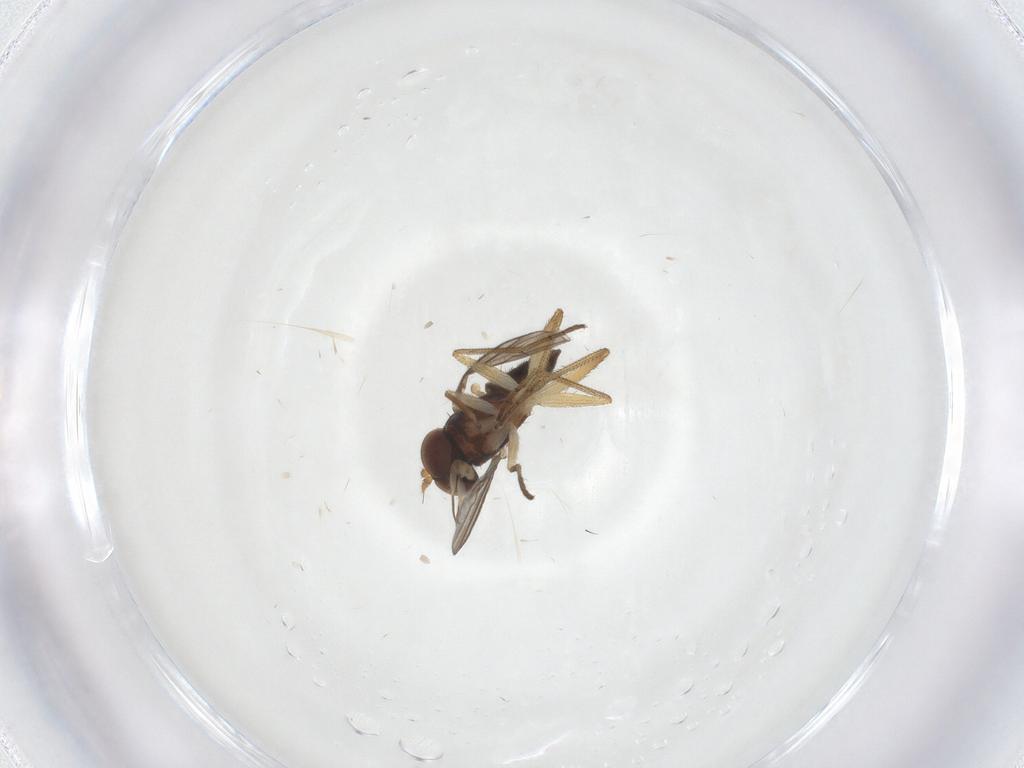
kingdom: Animalia
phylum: Arthropoda
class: Insecta
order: Diptera
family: Dolichopodidae
